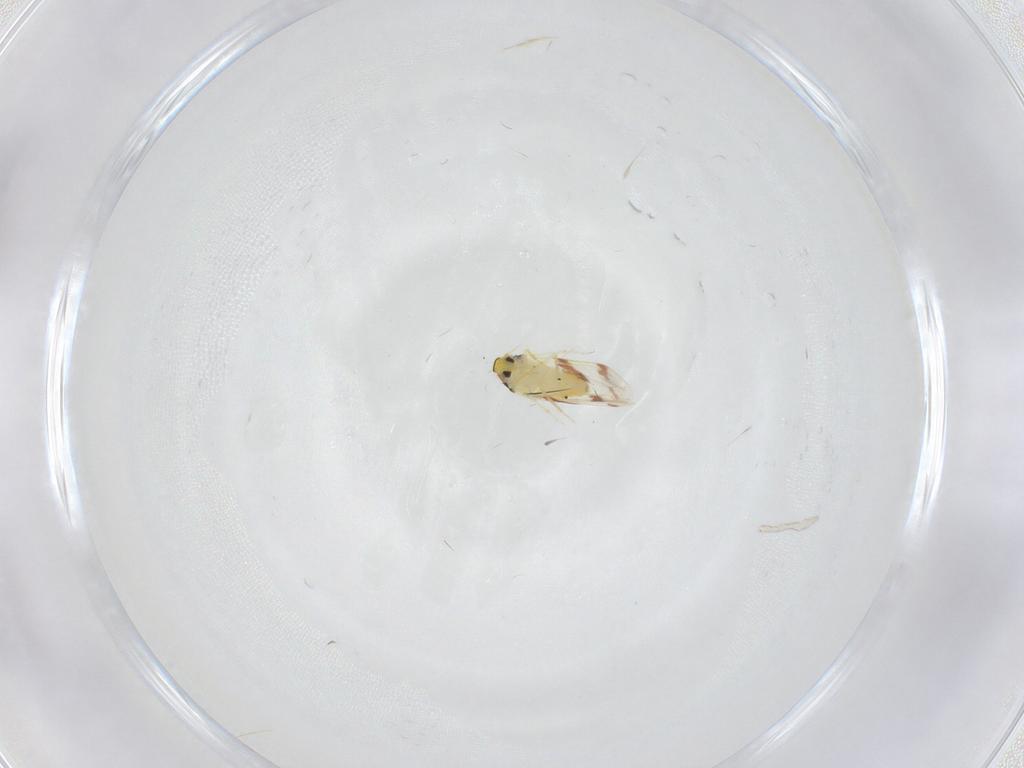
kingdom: Animalia
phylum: Arthropoda
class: Insecta
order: Hemiptera
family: Aleyrodidae
